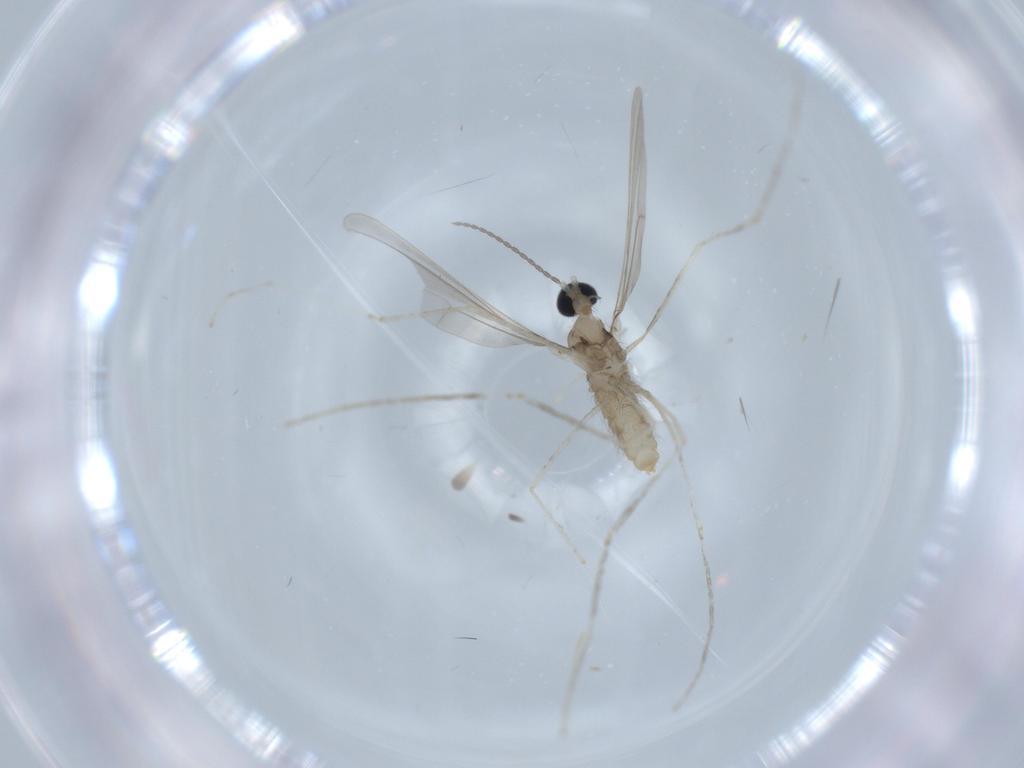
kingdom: Animalia
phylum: Arthropoda
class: Insecta
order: Diptera
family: Cecidomyiidae
